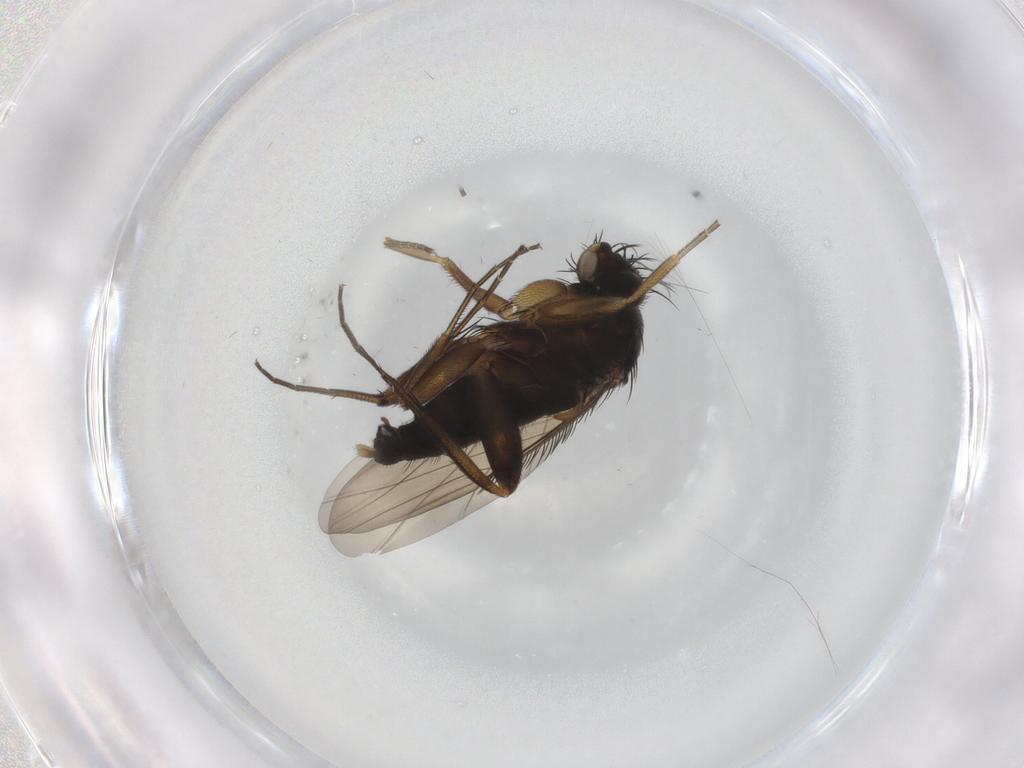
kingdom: Animalia
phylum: Arthropoda
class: Insecta
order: Diptera
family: Phoridae
